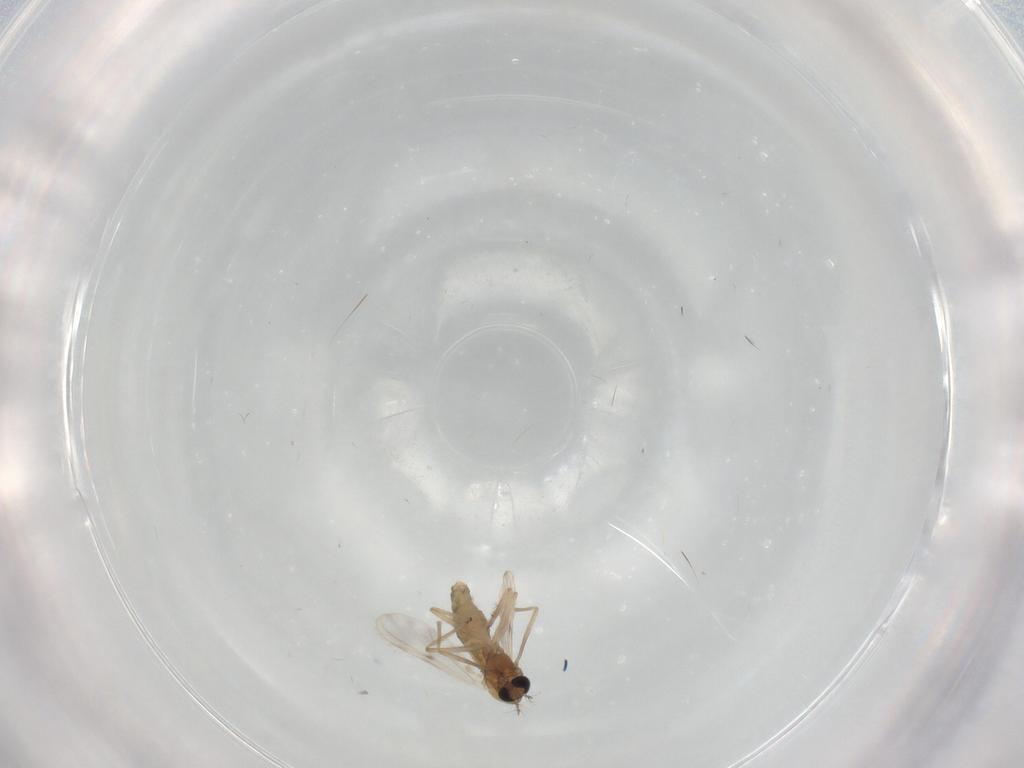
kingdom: Animalia
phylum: Arthropoda
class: Insecta
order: Diptera
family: Chironomidae
